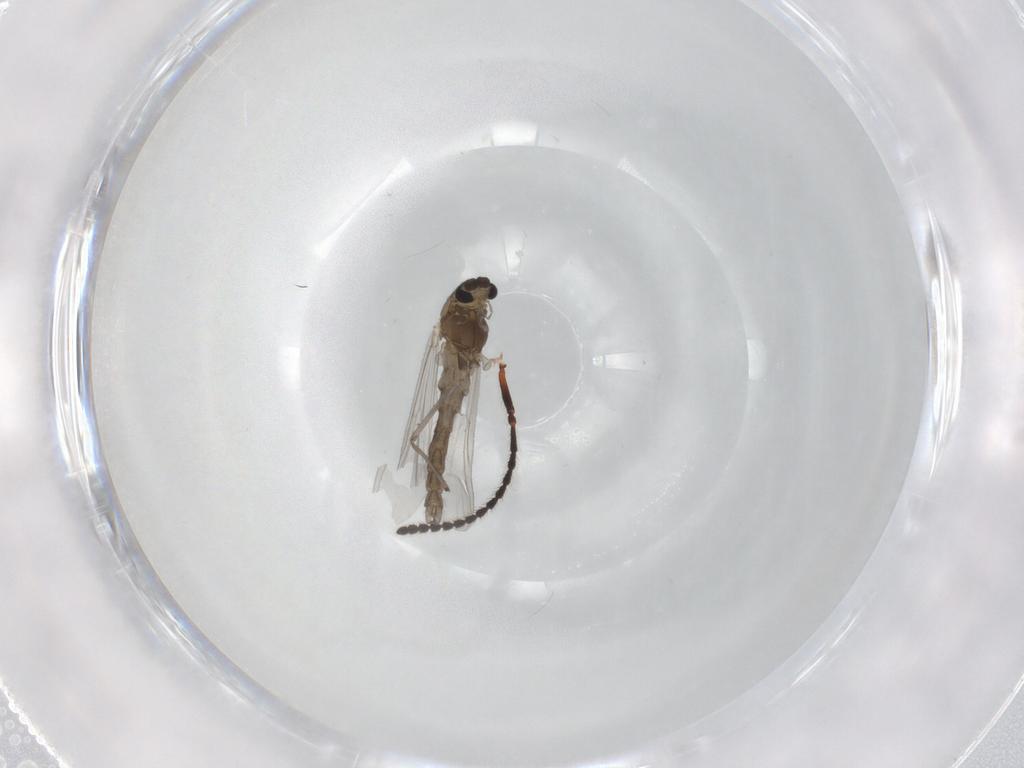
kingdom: Animalia
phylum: Arthropoda
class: Insecta
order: Diptera
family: Chironomidae
